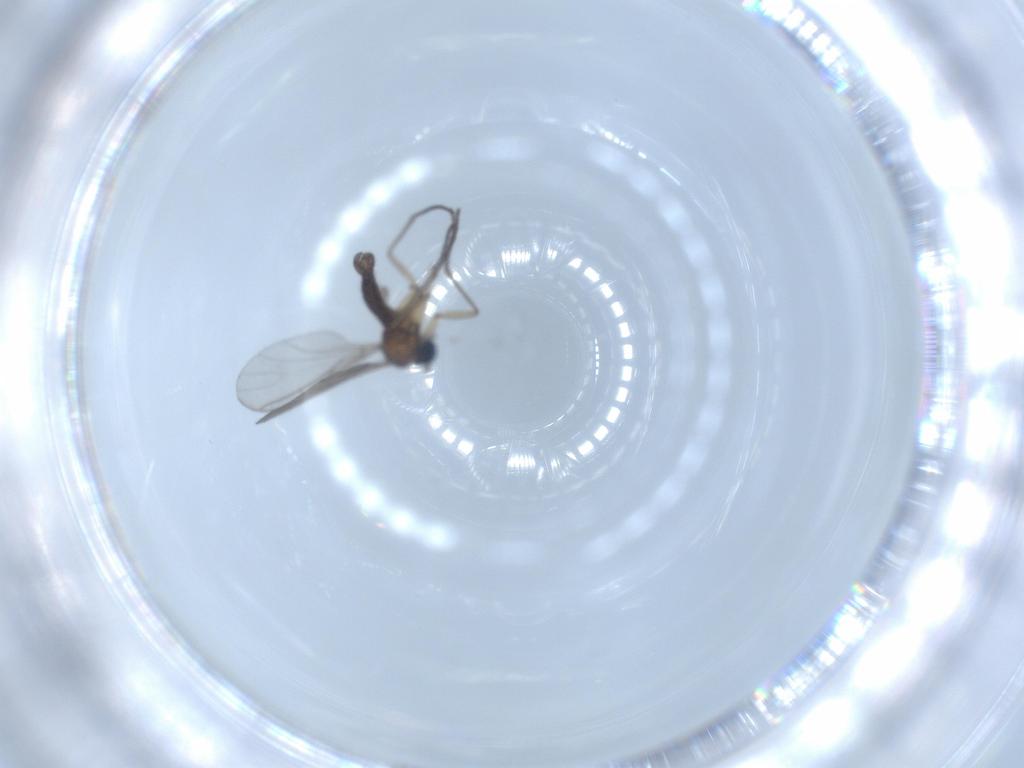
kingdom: Animalia
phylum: Arthropoda
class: Insecta
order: Diptera
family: Sciaridae
